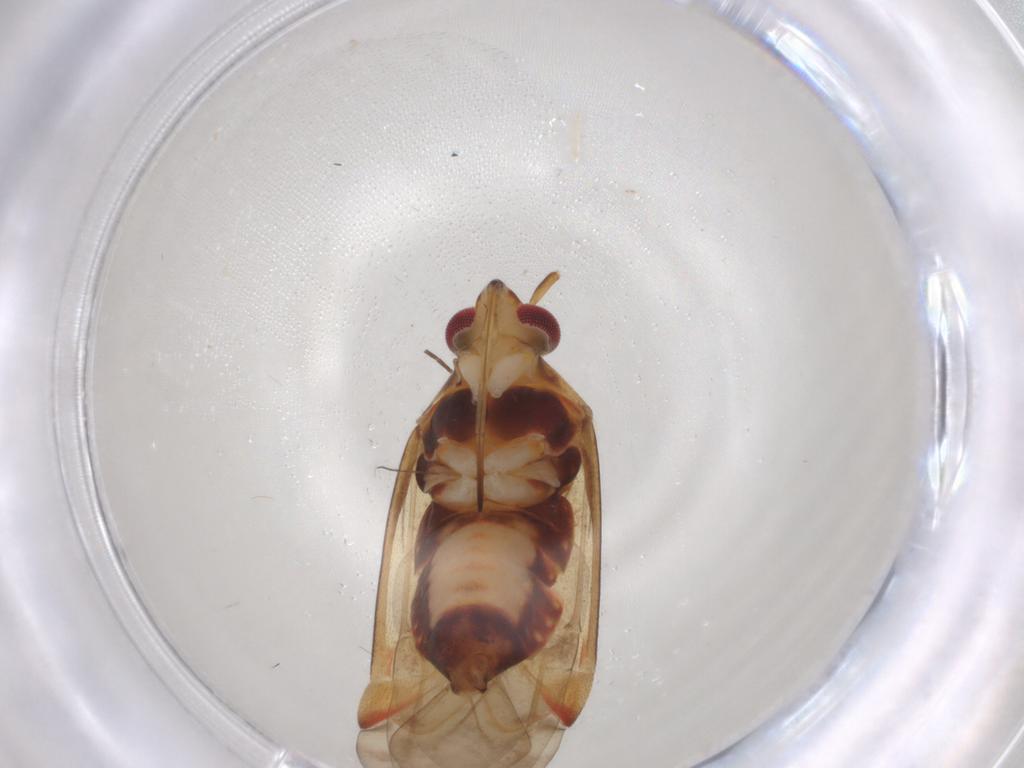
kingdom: Animalia
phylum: Arthropoda
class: Insecta
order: Hemiptera
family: Miridae
